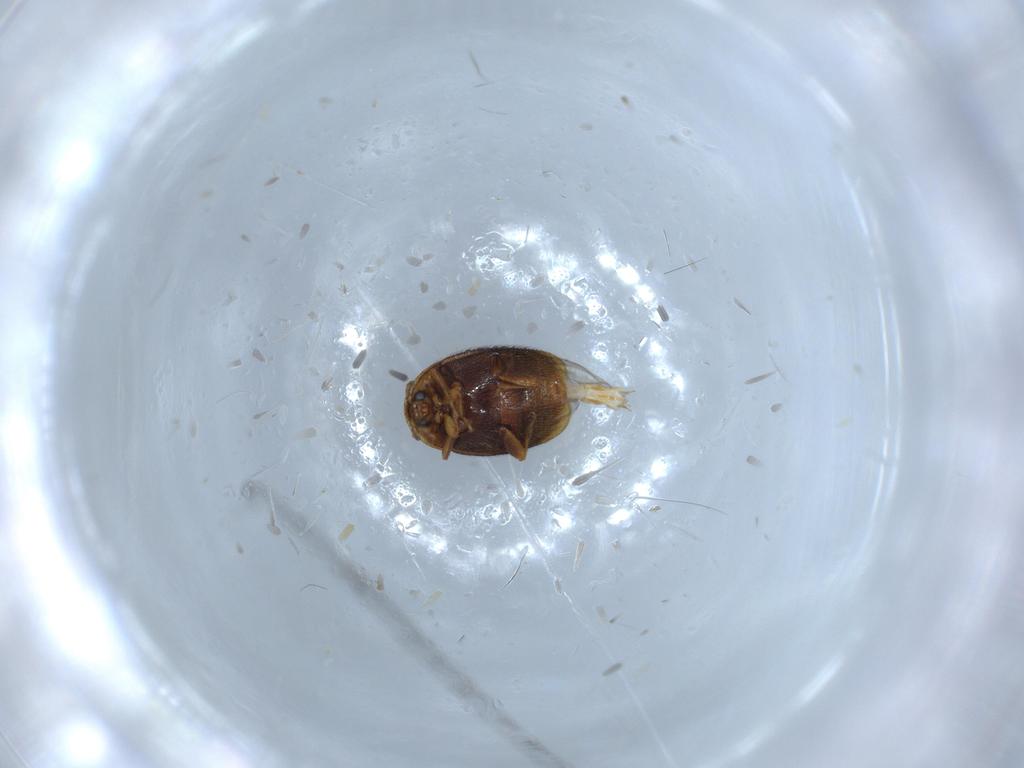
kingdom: Animalia
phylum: Arthropoda
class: Insecta
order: Coleoptera
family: Corylophidae
